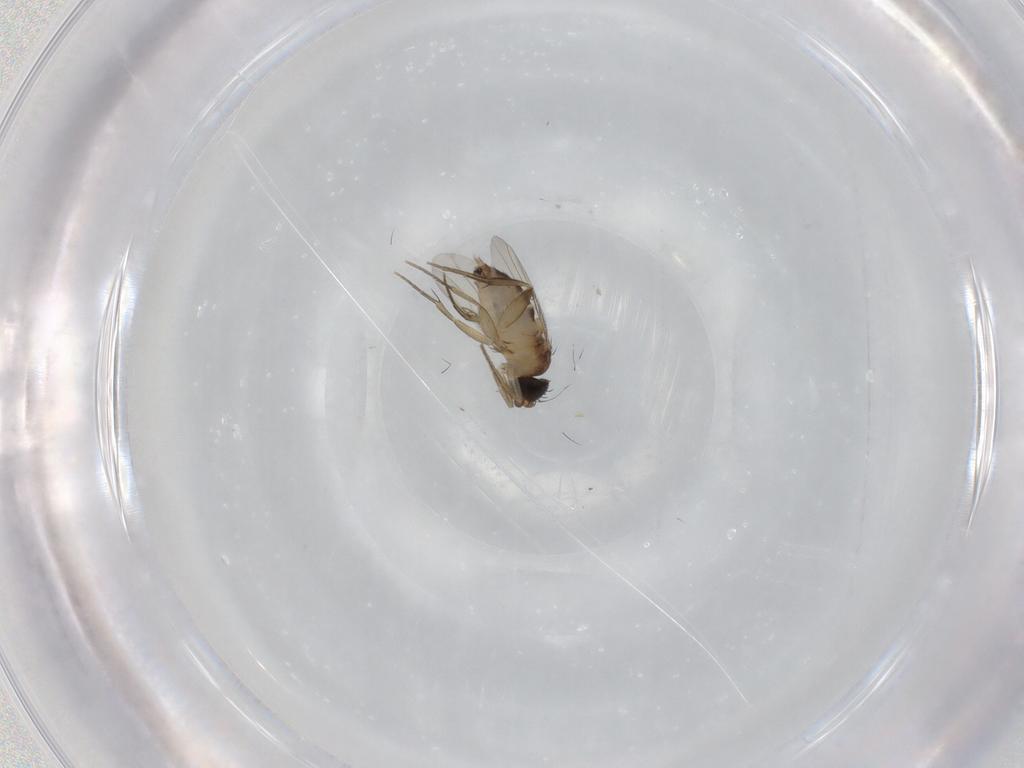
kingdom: Animalia
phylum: Arthropoda
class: Insecta
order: Diptera
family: Phoridae
